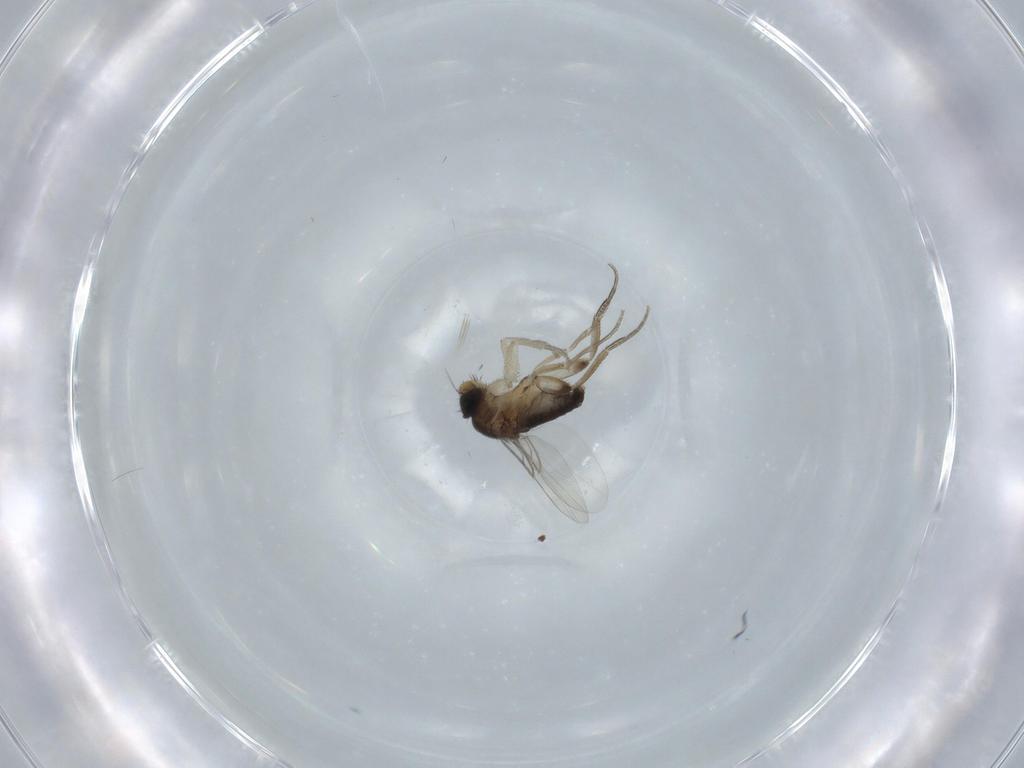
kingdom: Animalia
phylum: Arthropoda
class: Insecta
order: Diptera
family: Phoridae
